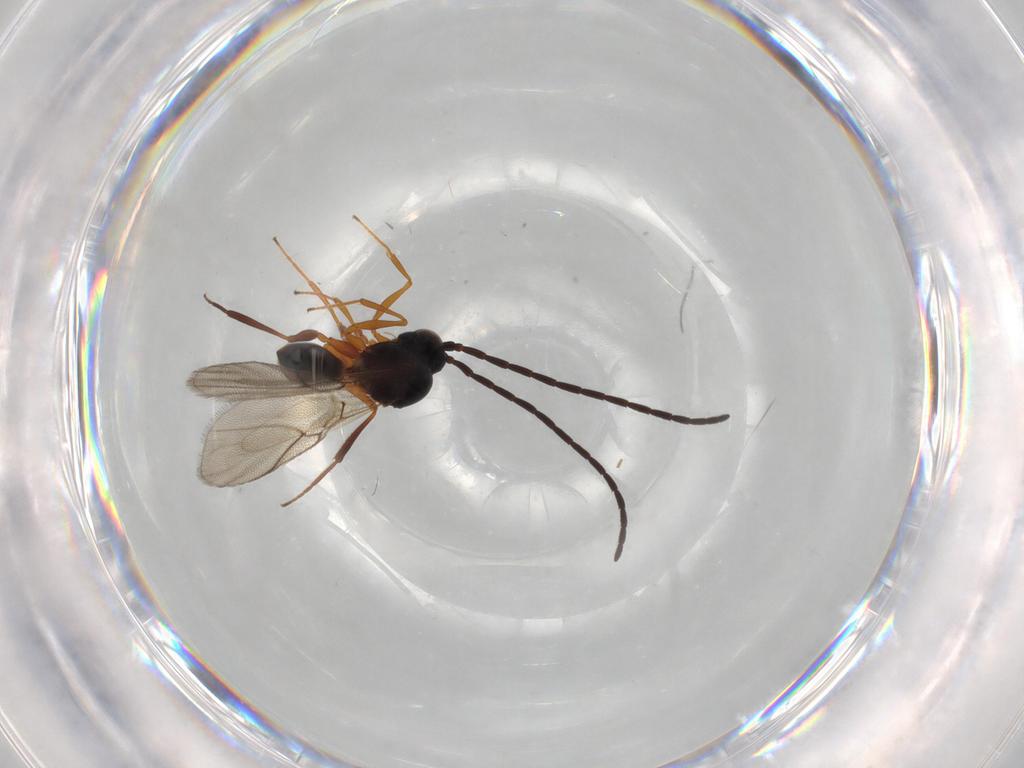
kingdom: Animalia
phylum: Arthropoda
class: Insecta
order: Hymenoptera
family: Figitidae
